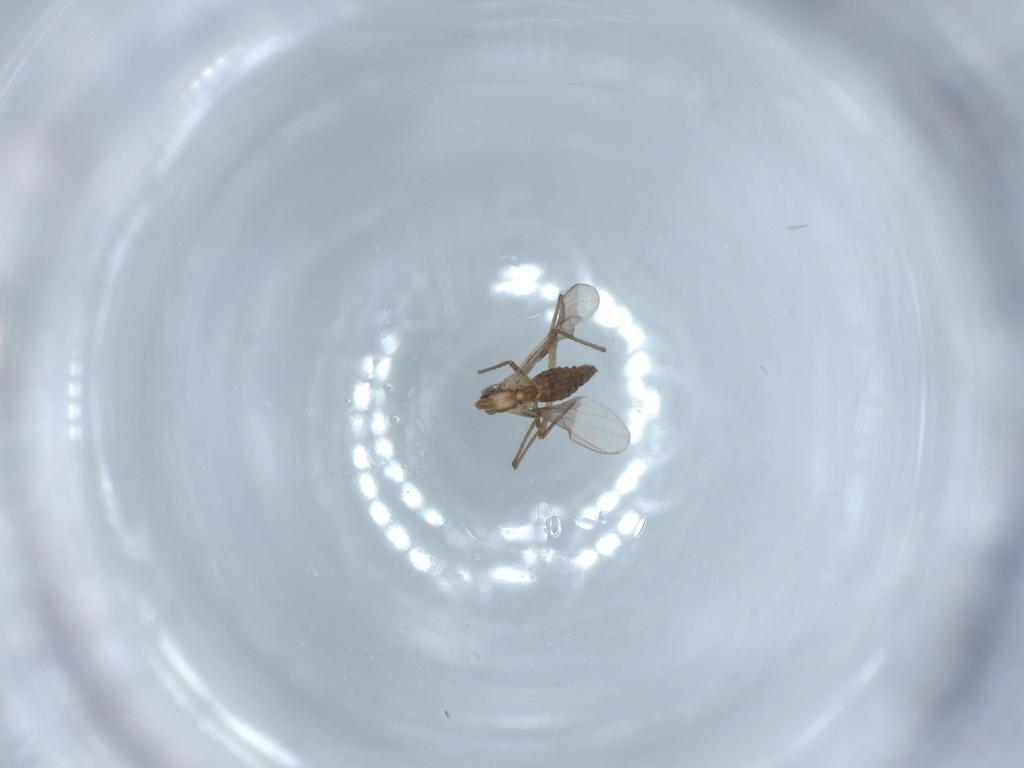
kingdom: Animalia
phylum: Arthropoda
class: Insecta
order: Diptera
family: Chironomidae
